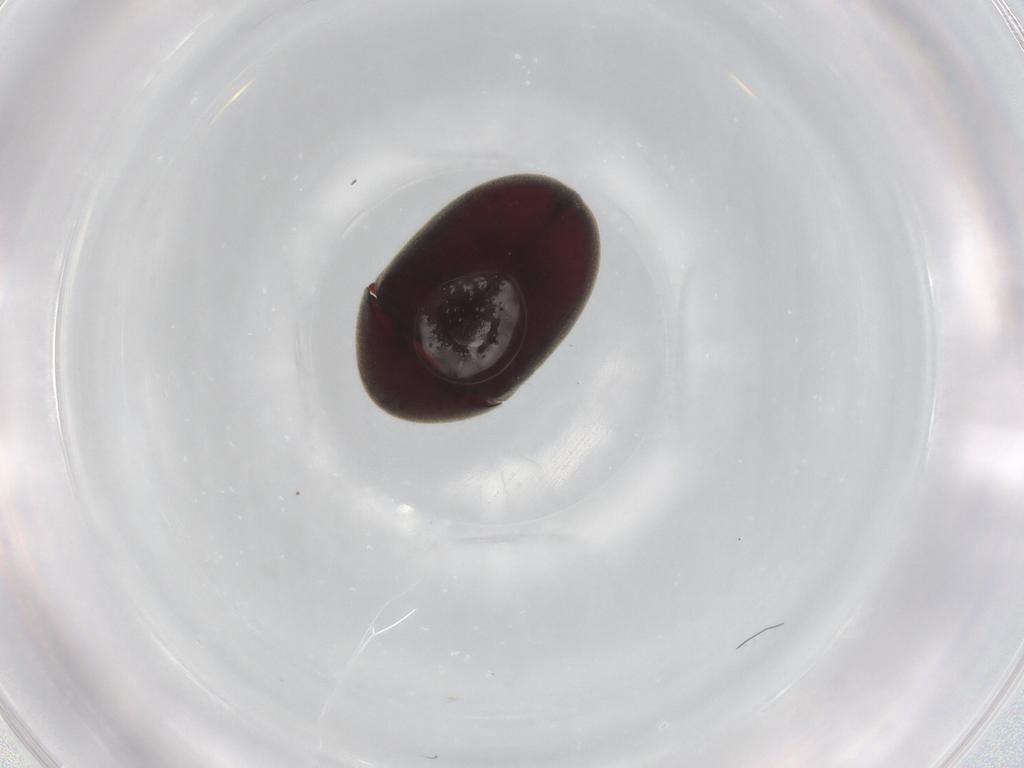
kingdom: Animalia
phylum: Arthropoda
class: Insecta
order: Coleoptera
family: Ptinidae
